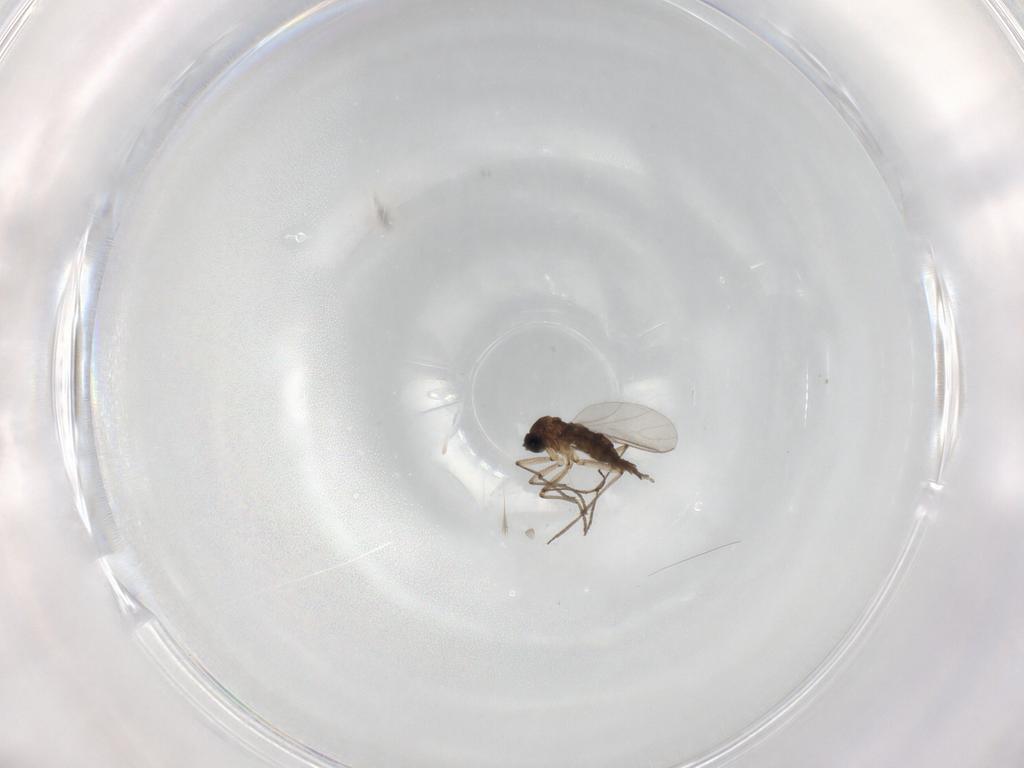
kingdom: Animalia
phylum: Arthropoda
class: Insecta
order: Diptera
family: Sciaridae
